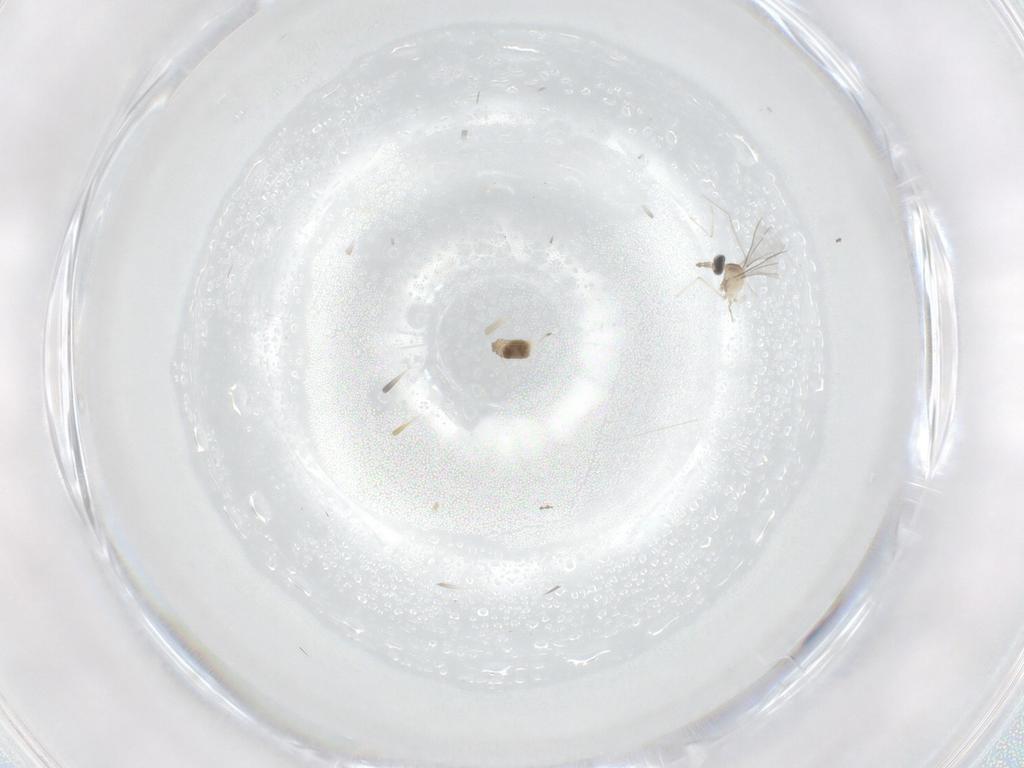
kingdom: Animalia
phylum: Arthropoda
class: Insecta
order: Diptera
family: Cecidomyiidae
